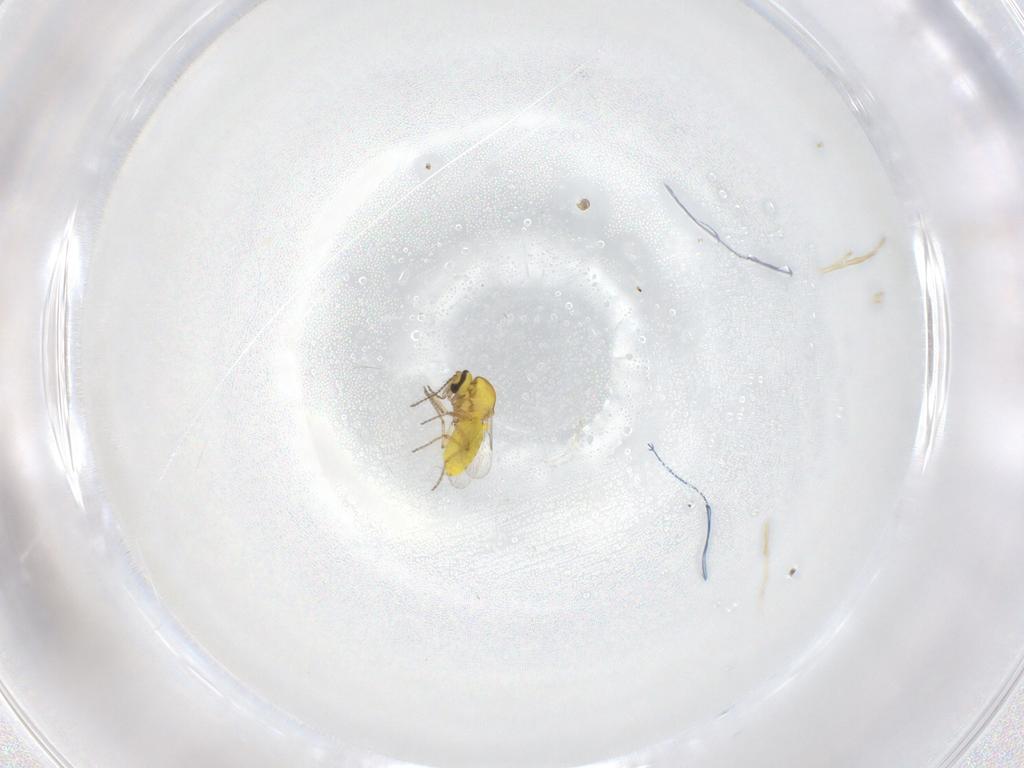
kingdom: Animalia
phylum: Arthropoda
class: Insecta
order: Diptera
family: Ceratopogonidae
